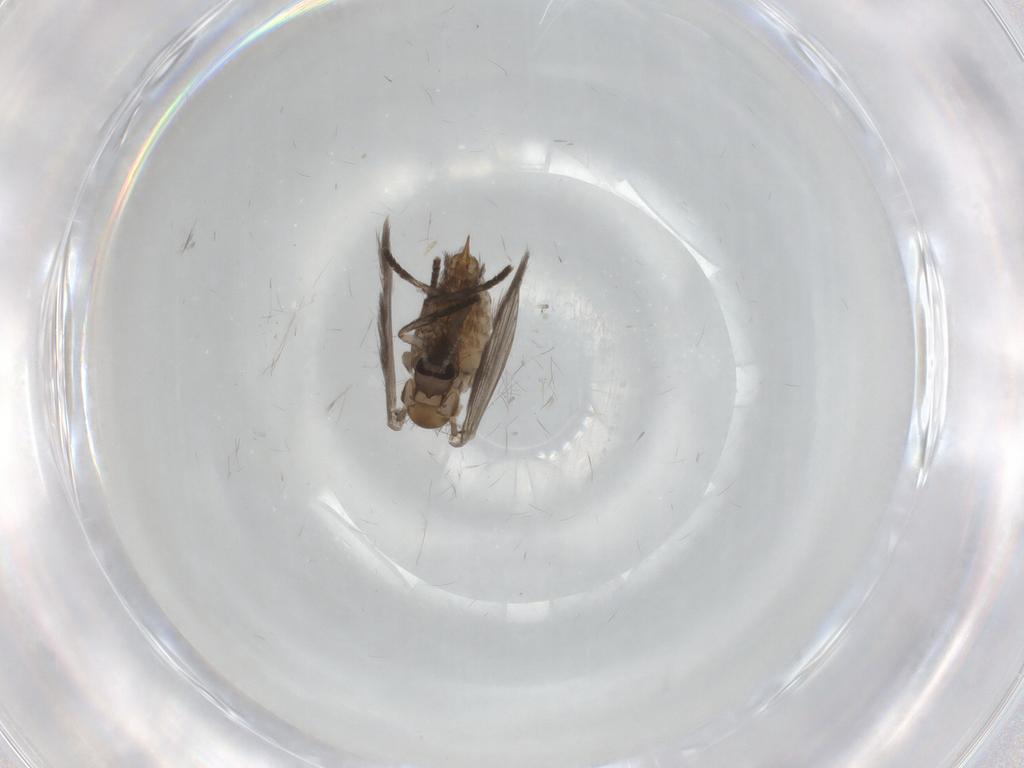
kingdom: Animalia
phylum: Arthropoda
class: Insecta
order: Diptera
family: Psychodidae
